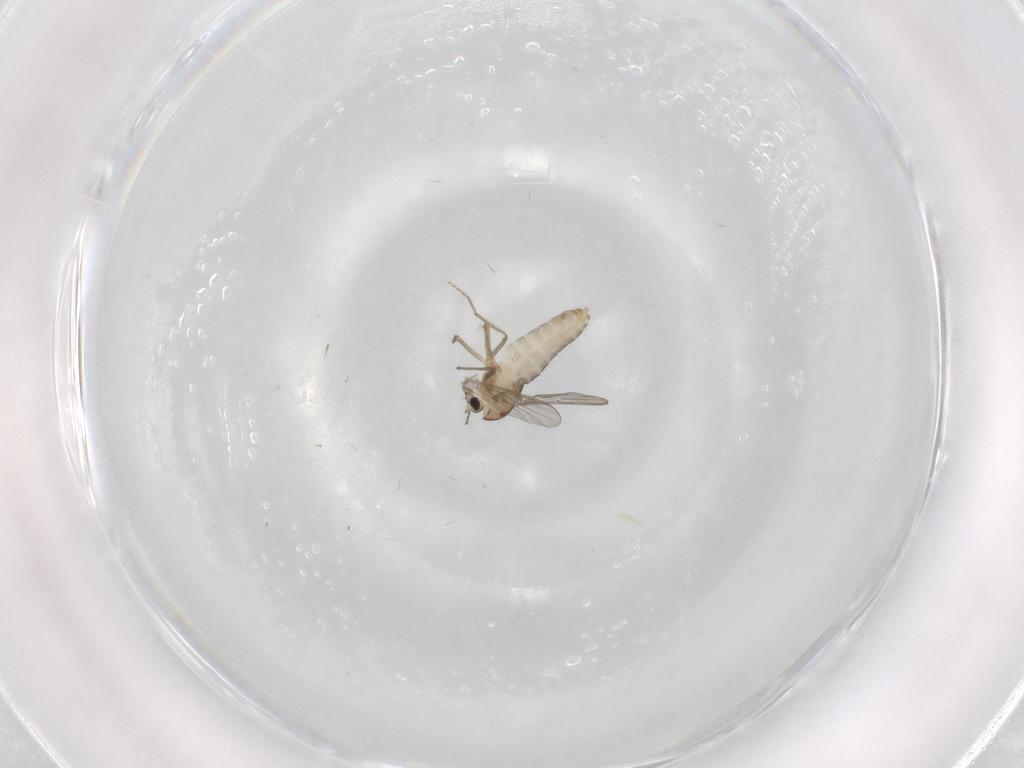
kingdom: Animalia
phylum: Arthropoda
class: Insecta
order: Diptera
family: Chironomidae
